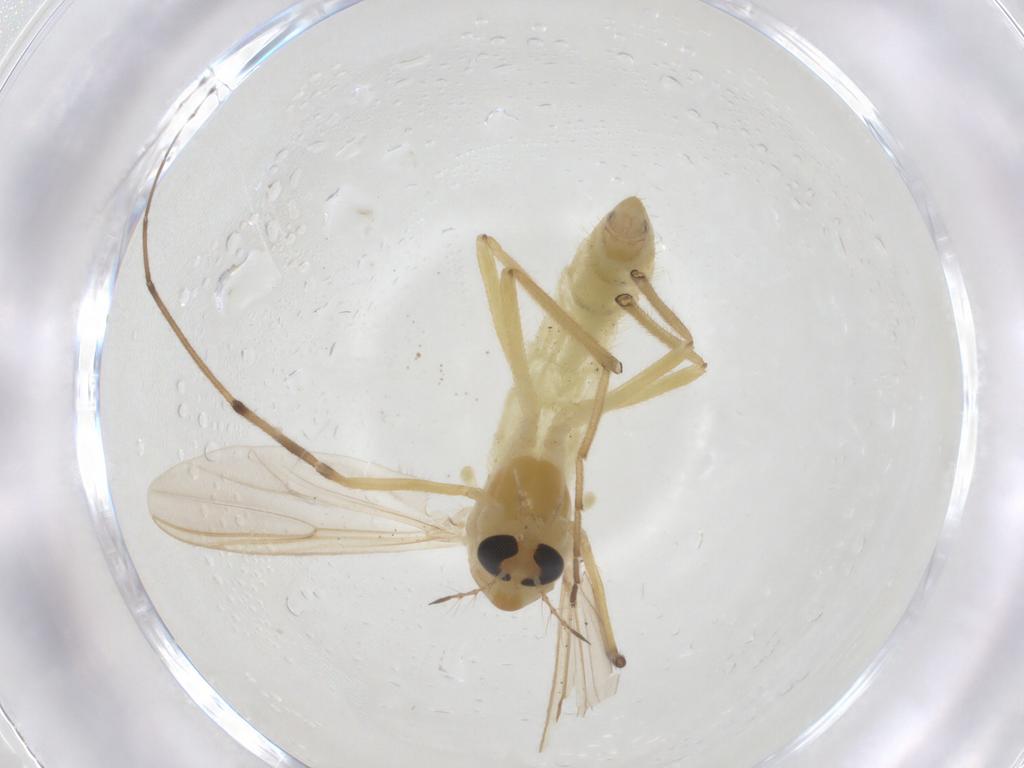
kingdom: Animalia
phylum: Arthropoda
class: Insecta
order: Diptera
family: Chironomidae
